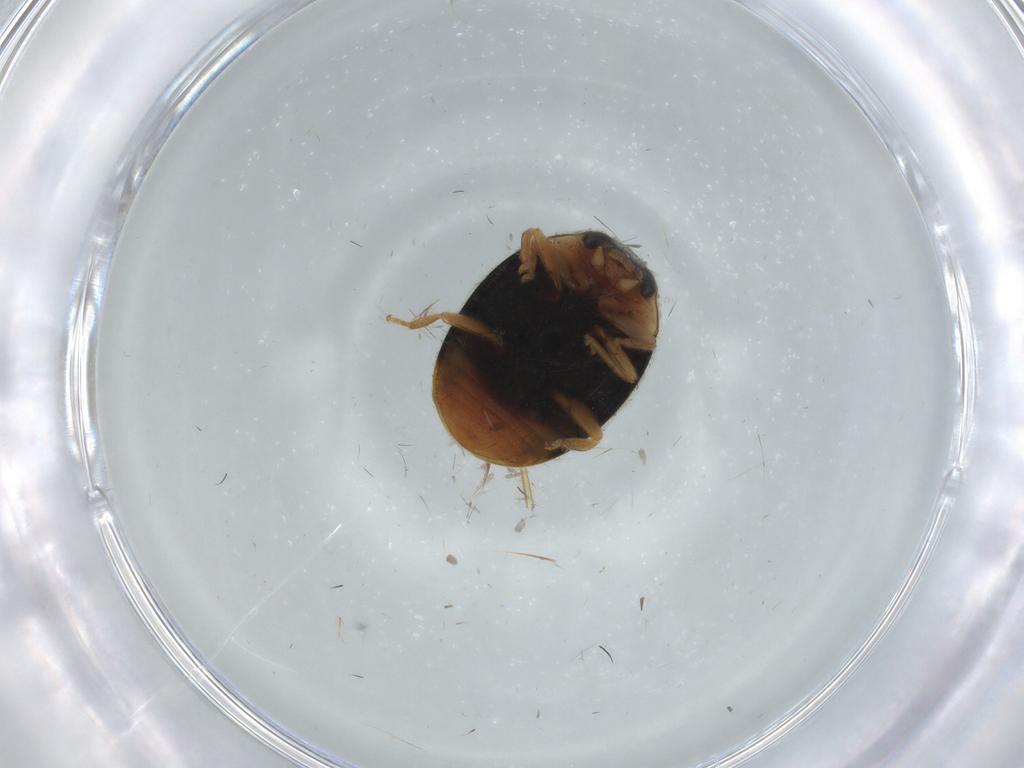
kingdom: Animalia
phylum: Arthropoda
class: Insecta
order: Coleoptera
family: Coccinellidae
